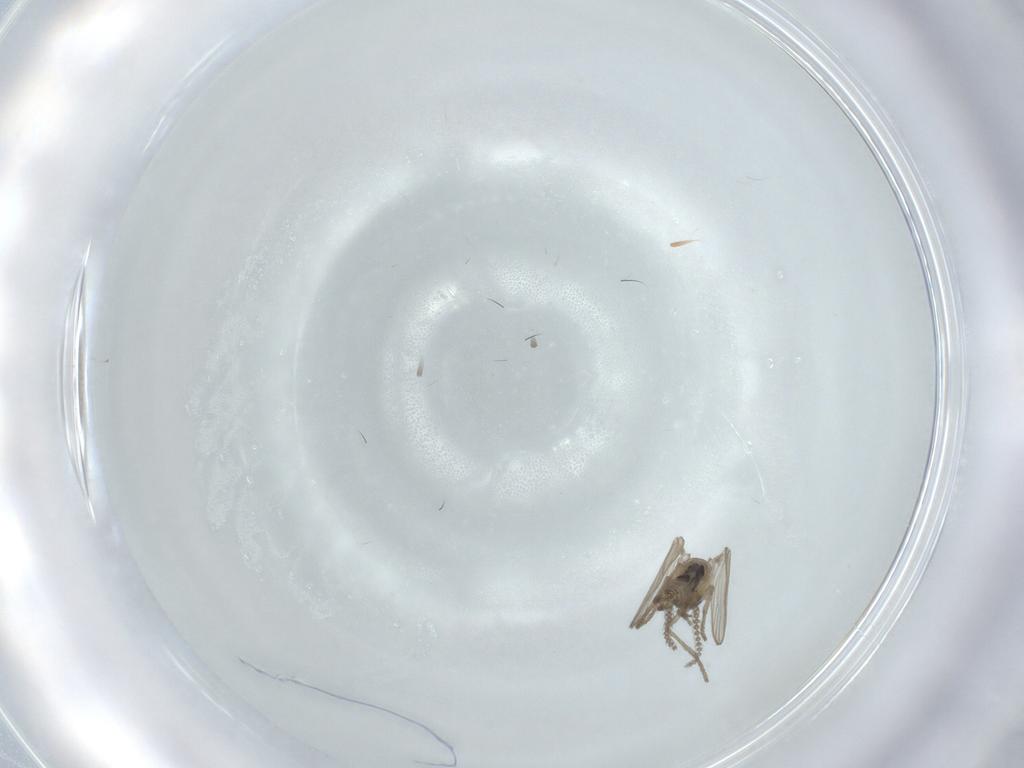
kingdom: Animalia
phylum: Arthropoda
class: Insecta
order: Diptera
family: Psychodidae
